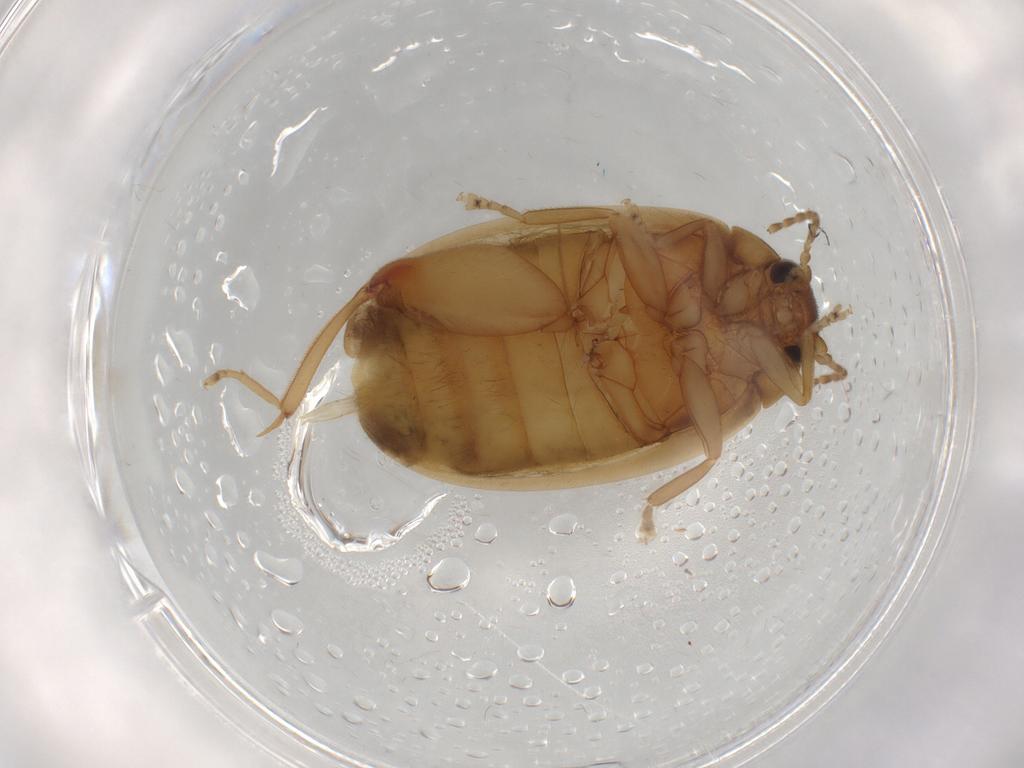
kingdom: Animalia
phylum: Arthropoda
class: Insecta
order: Coleoptera
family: Scirtidae
